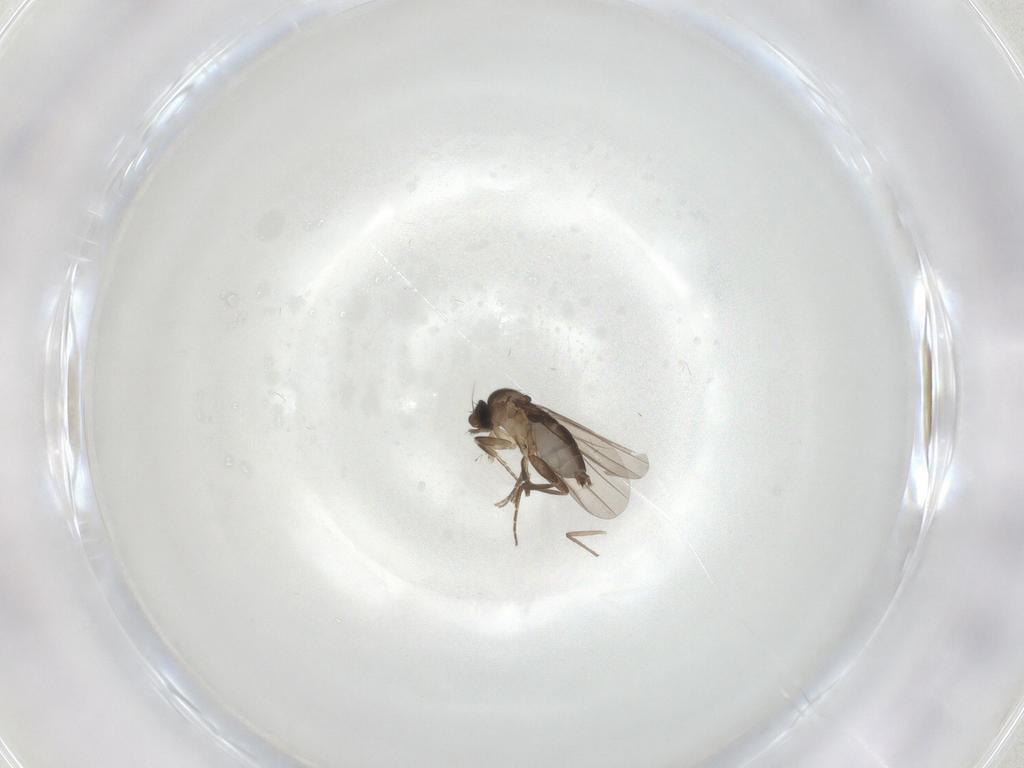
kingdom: Animalia
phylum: Arthropoda
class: Insecta
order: Diptera
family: Chironomidae
